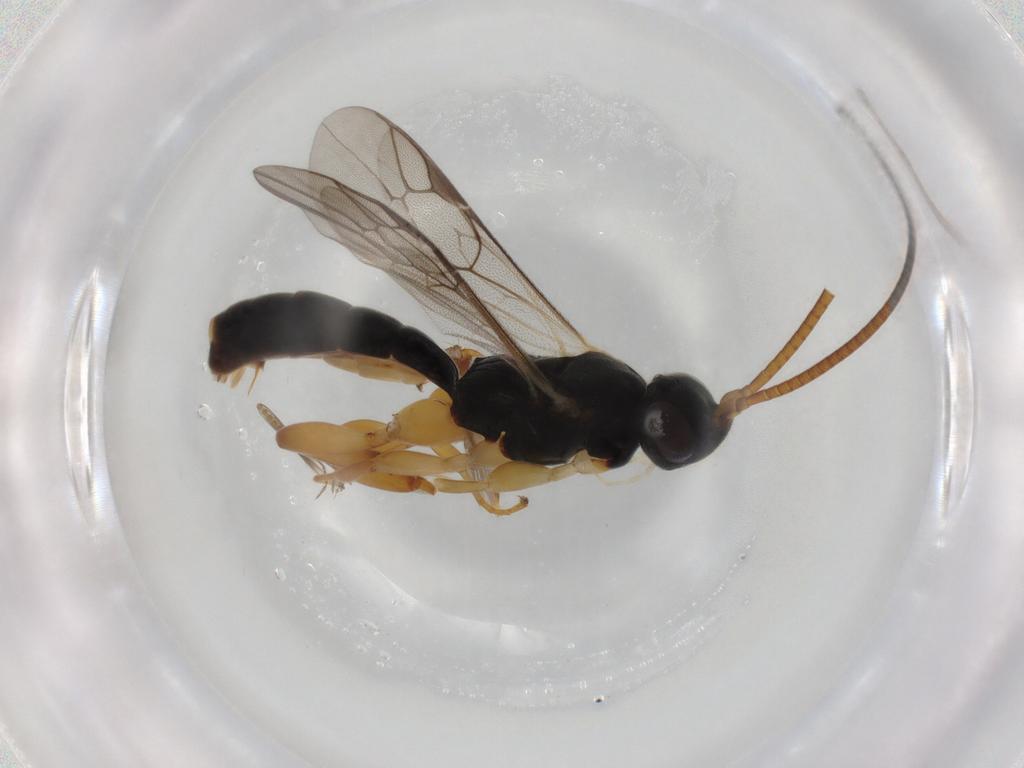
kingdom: Animalia
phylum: Arthropoda
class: Insecta
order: Hymenoptera
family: Crabronidae
